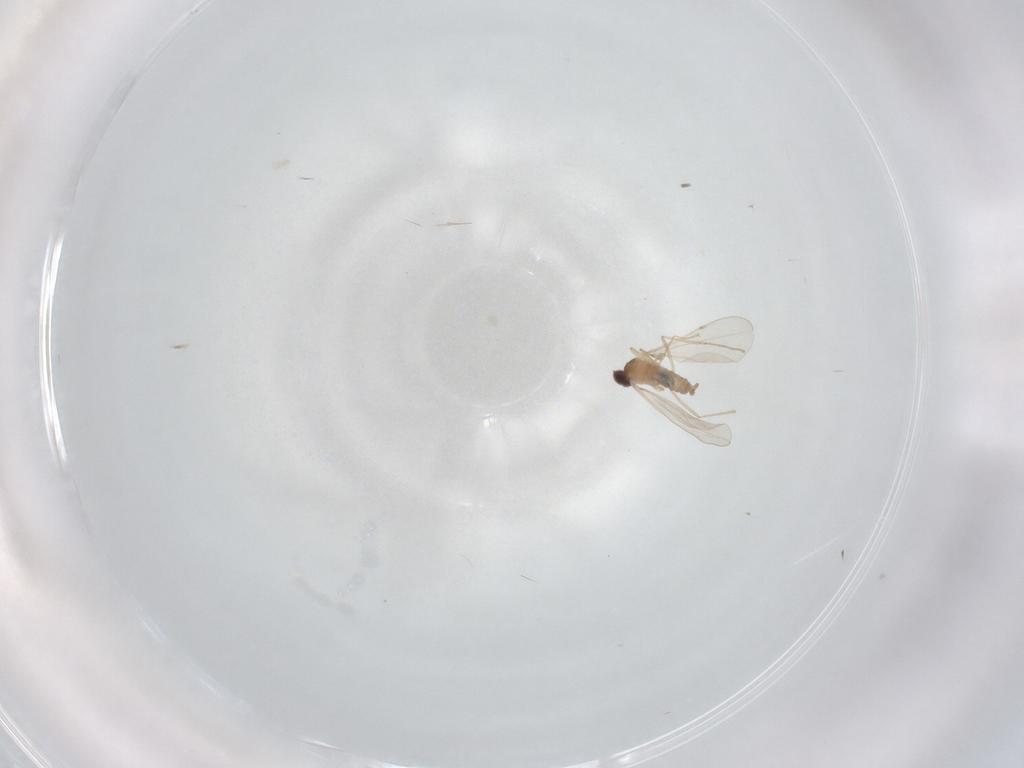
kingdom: Animalia
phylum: Arthropoda
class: Insecta
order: Diptera
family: Cecidomyiidae
